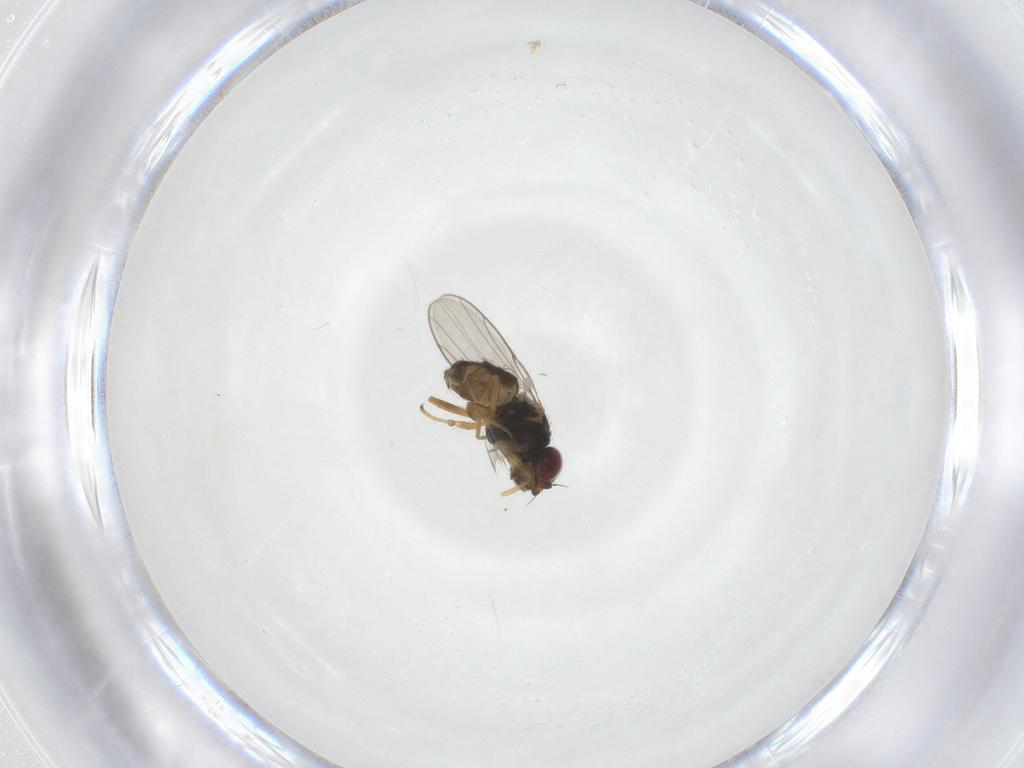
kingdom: Animalia
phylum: Arthropoda
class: Insecta
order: Diptera
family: Chloropidae
